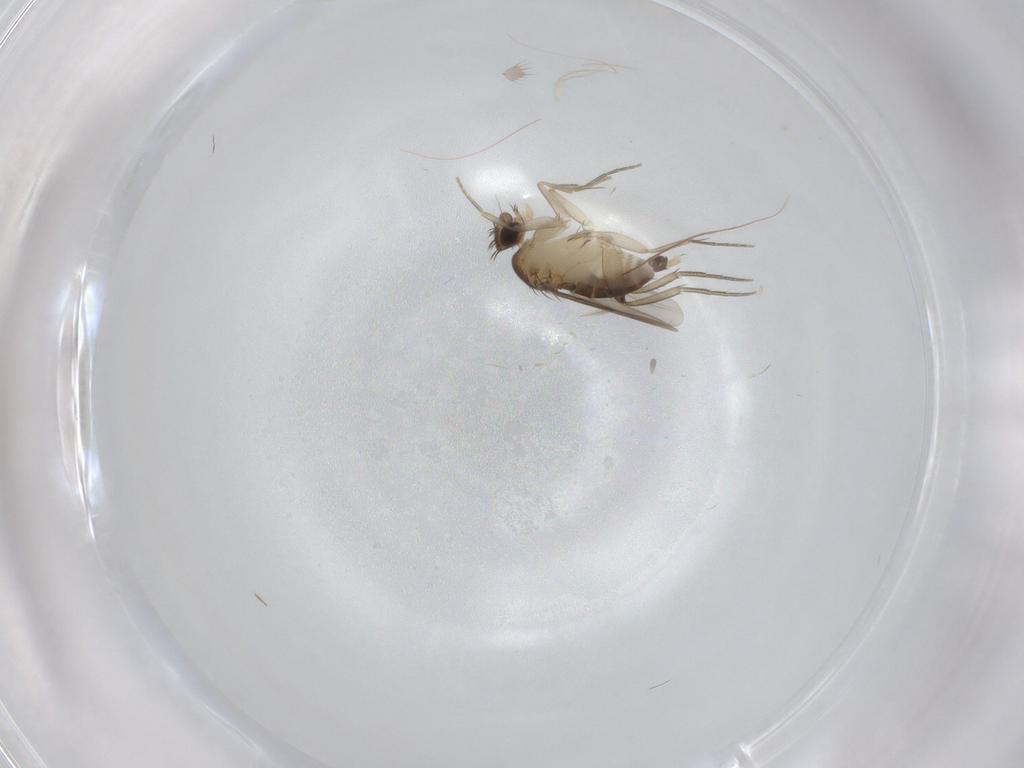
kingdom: Animalia
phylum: Arthropoda
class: Insecta
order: Diptera
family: Phoridae
